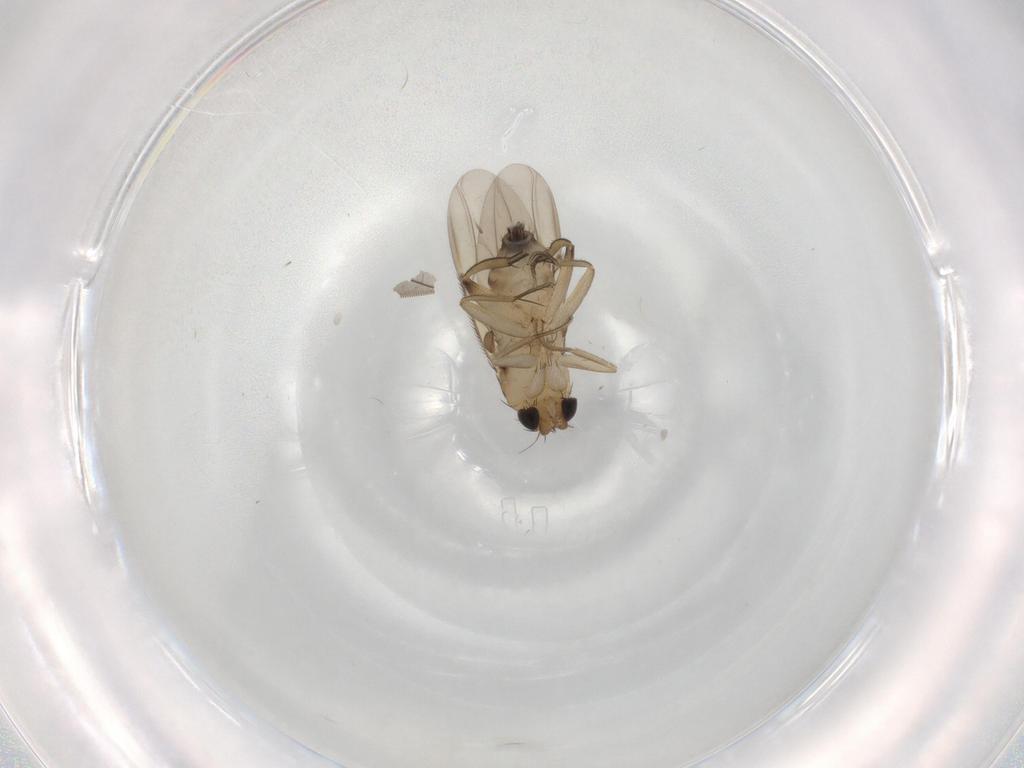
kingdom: Animalia
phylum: Arthropoda
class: Insecta
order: Diptera
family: Phoridae
